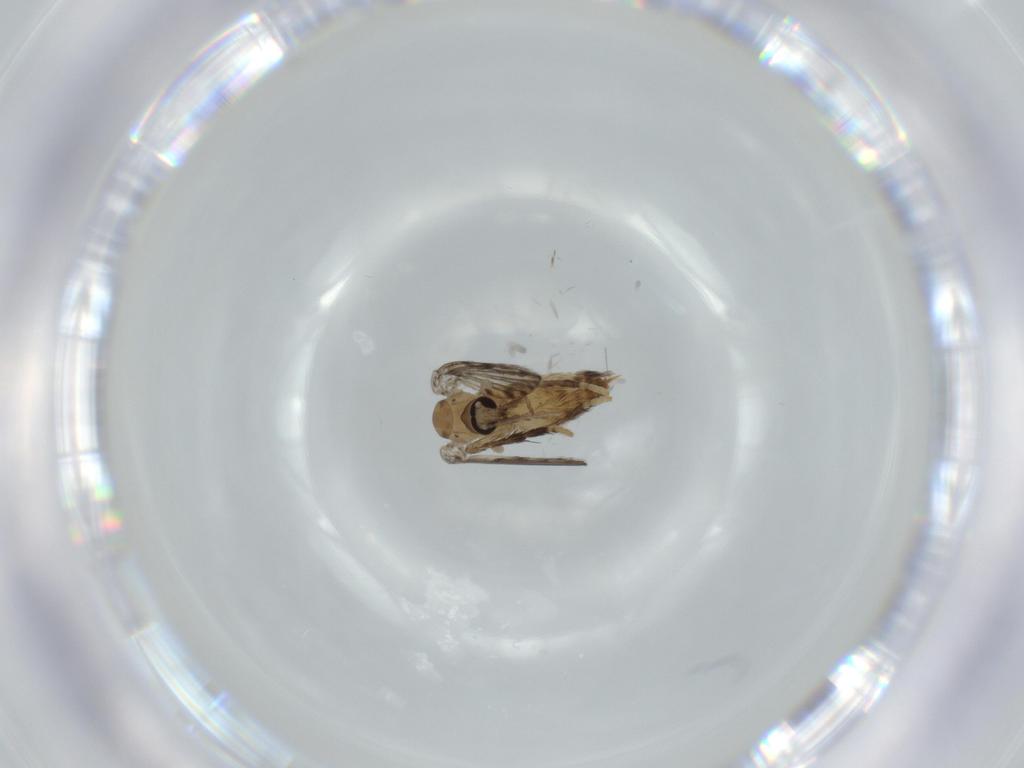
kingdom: Animalia
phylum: Arthropoda
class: Insecta
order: Diptera
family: Psychodidae
